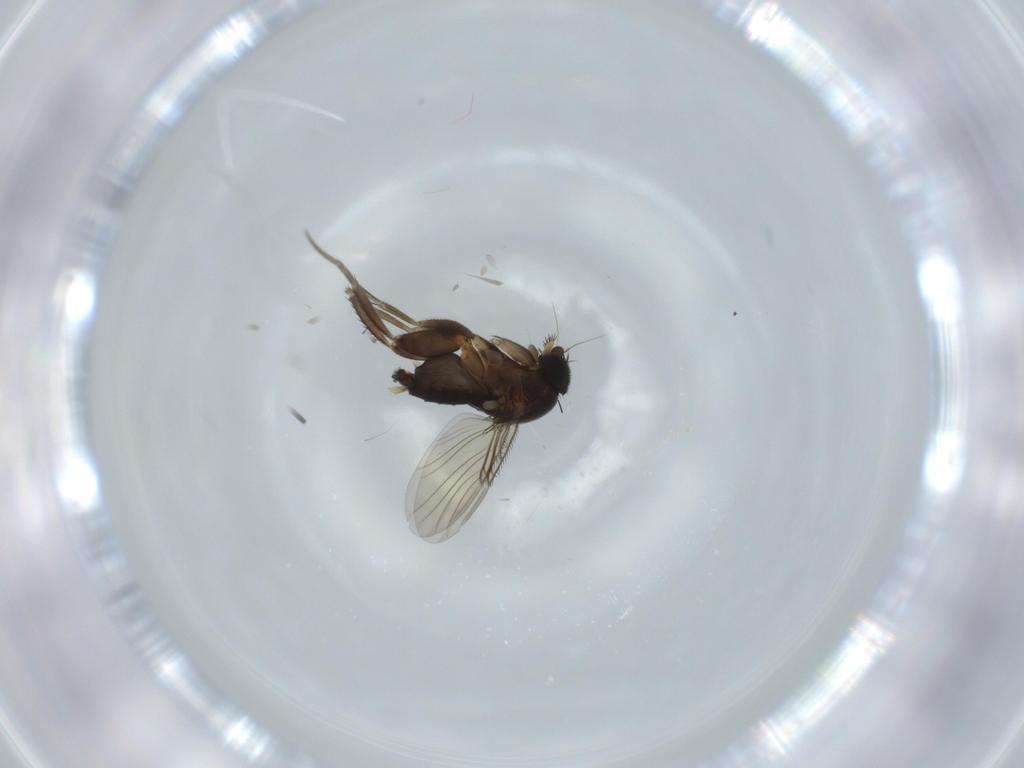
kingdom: Animalia
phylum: Arthropoda
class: Insecta
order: Diptera
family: Phoridae
